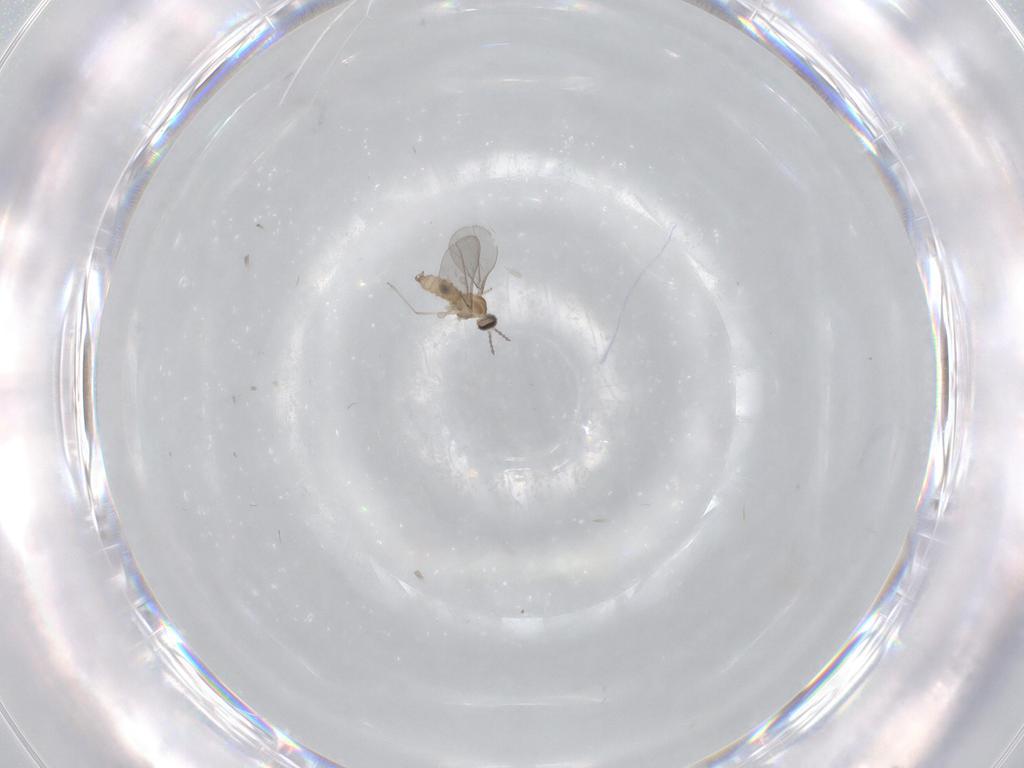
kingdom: Animalia
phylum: Arthropoda
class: Insecta
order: Diptera
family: Cecidomyiidae
